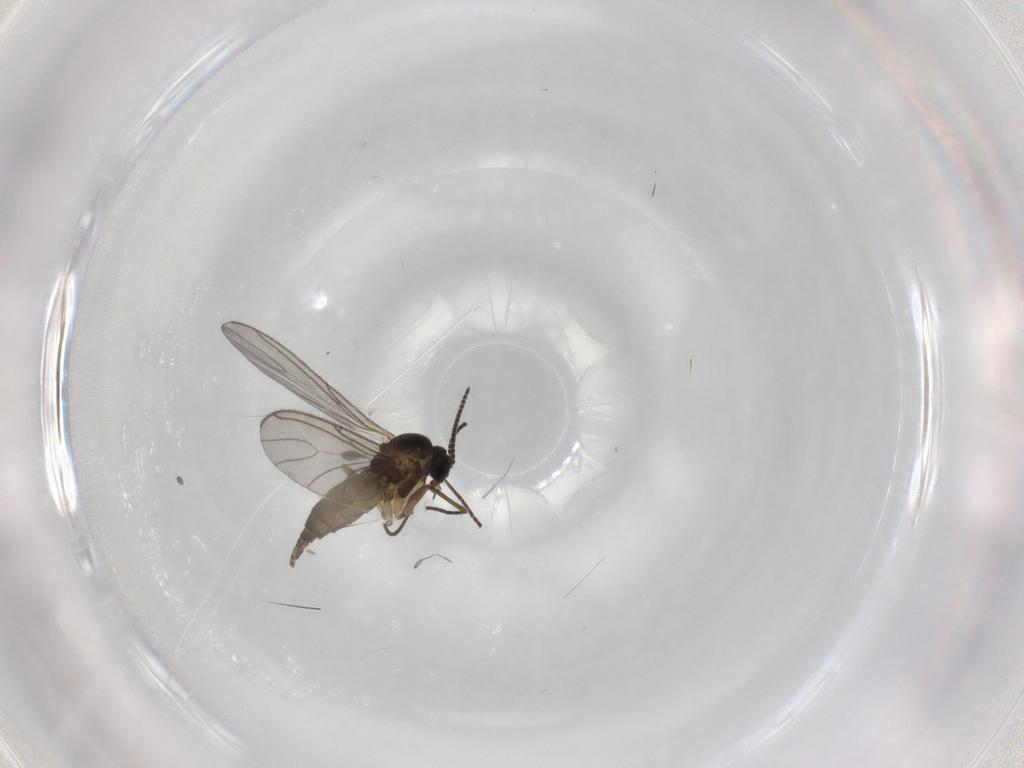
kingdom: Animalia
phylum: Arthropoda
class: Insecta
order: Diptera
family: Sciaridae
